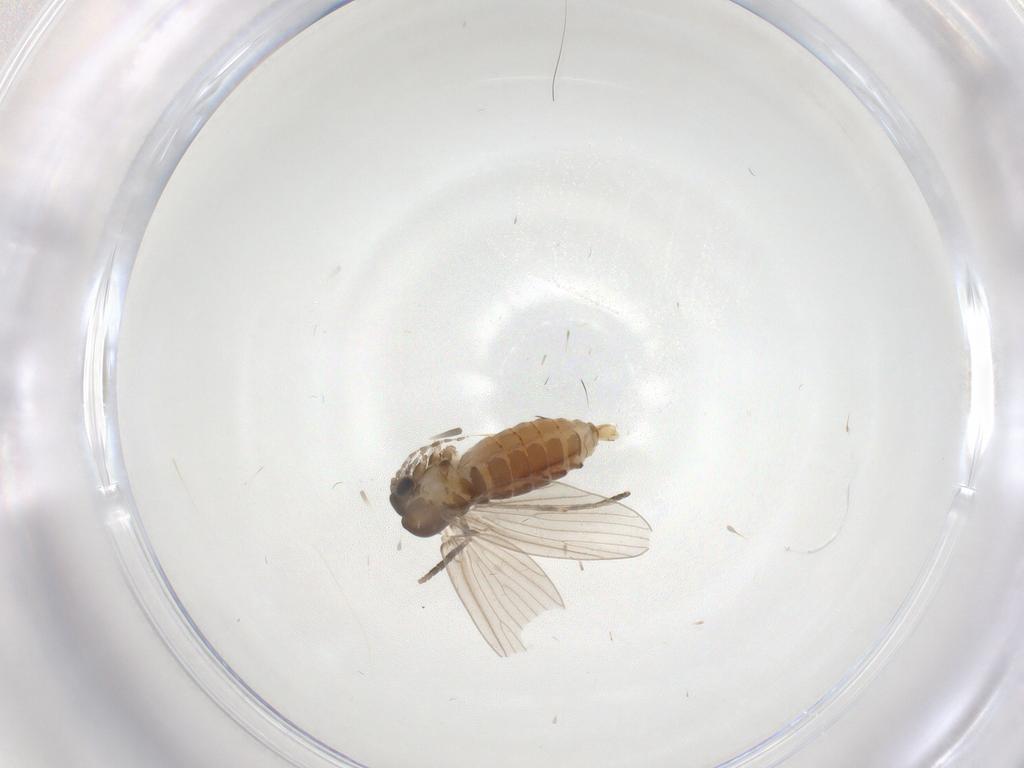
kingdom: Animalia
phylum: Arthropoda
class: Insecta
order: Diptera
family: Psychodidae
